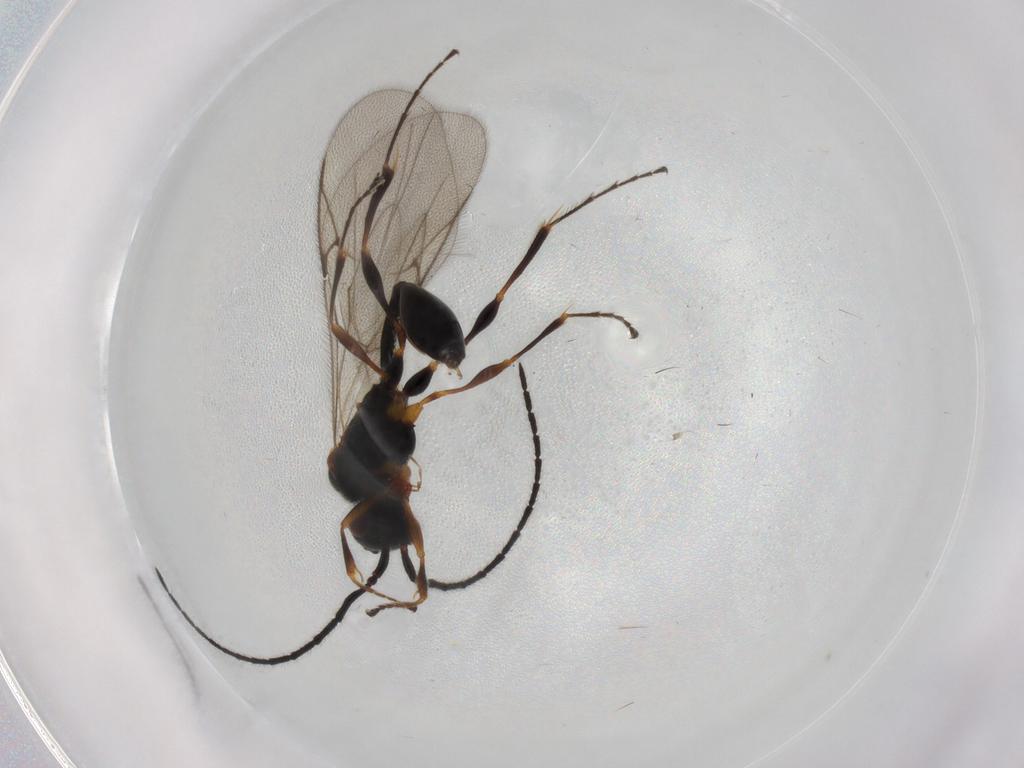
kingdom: Animalia
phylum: Arthropoda
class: Insecta
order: Hymenoptera
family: Diapriidae
